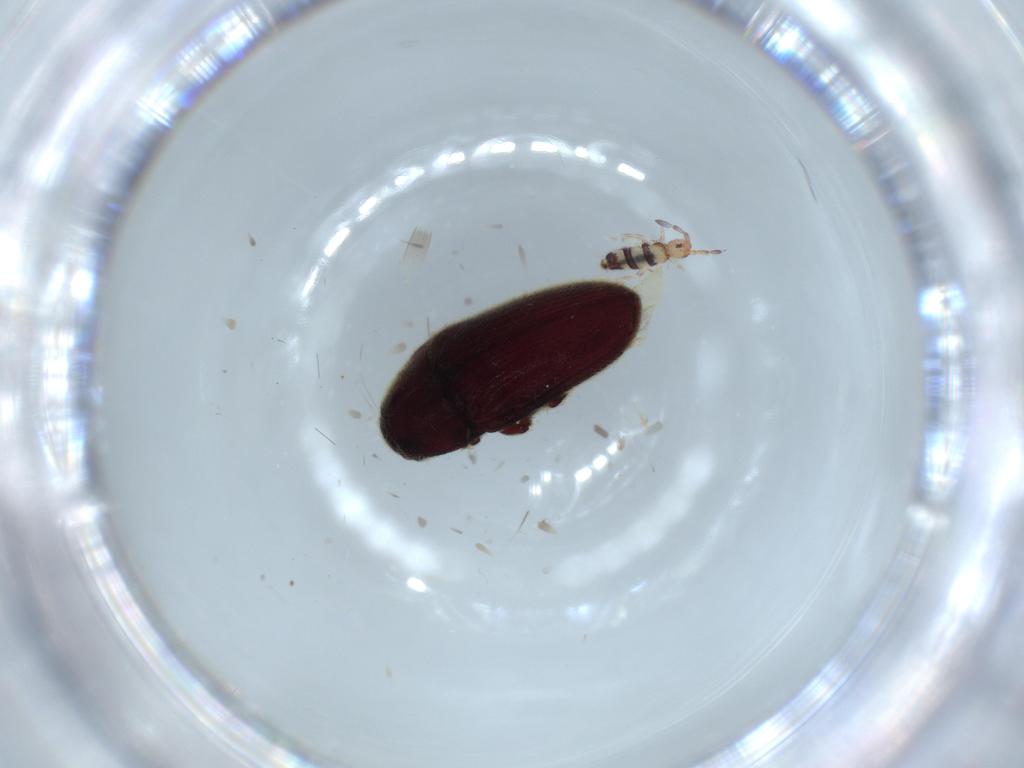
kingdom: Animalia
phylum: Arthropoda
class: Insecta
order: Coleoptera
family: Throscidae
